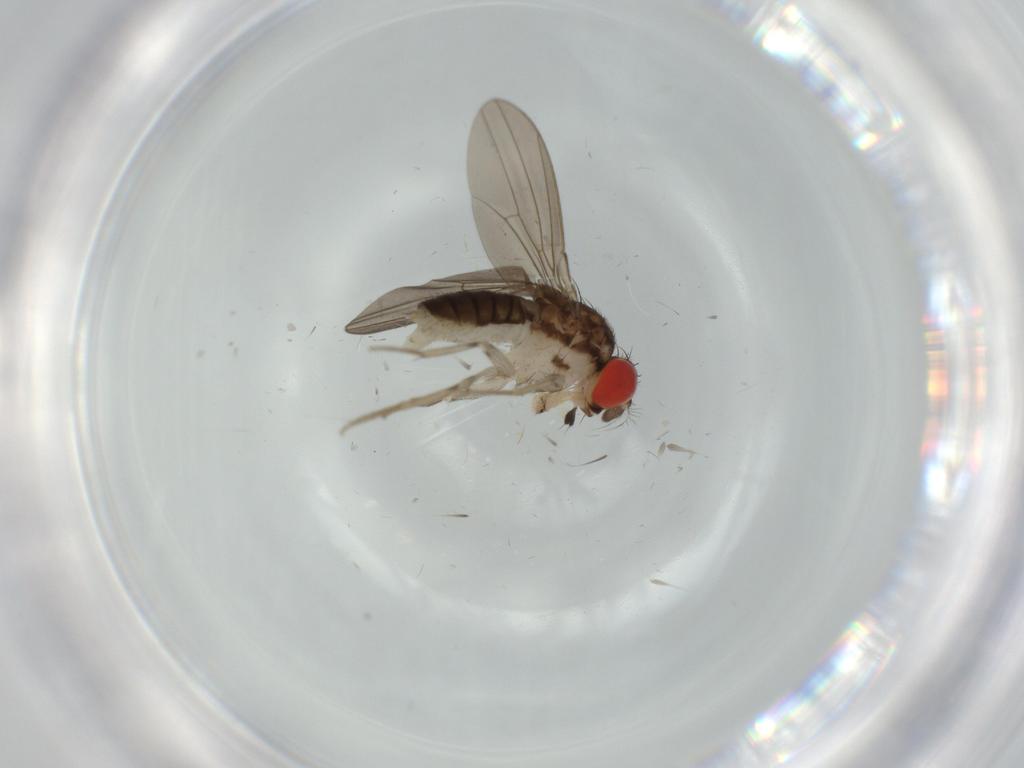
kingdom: Animalia
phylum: Arthropoda
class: Insecta
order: Diptera
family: Drosophilidae
